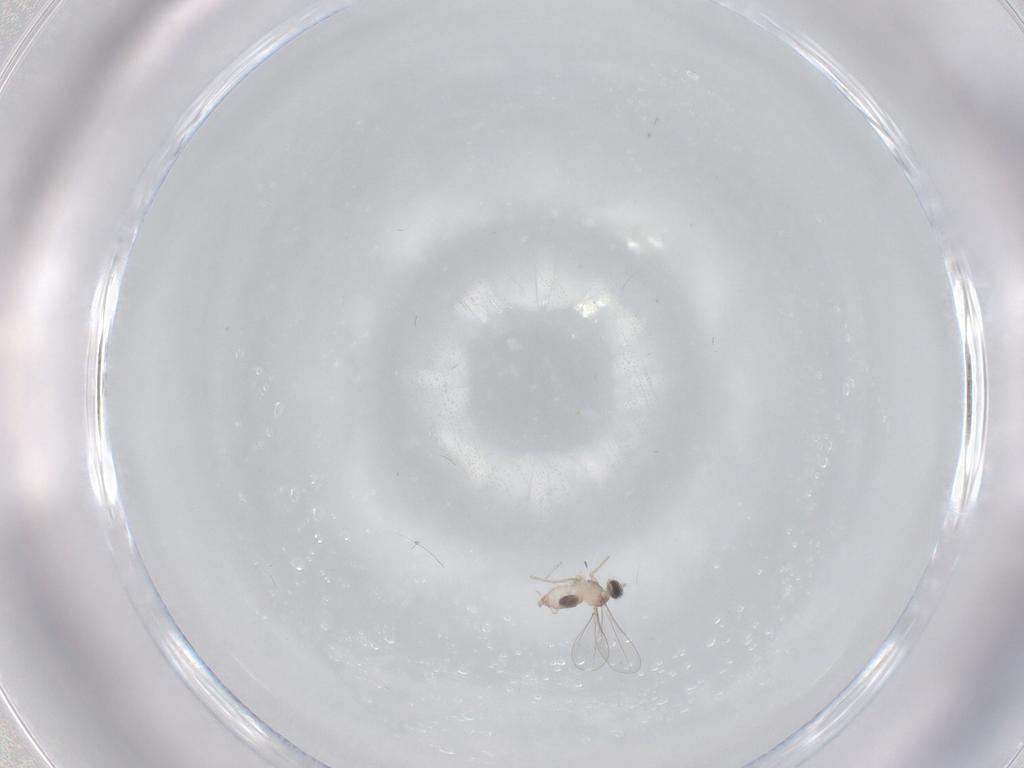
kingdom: Animalia
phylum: Arthropoda
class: Insecta
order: Diptera
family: Cecidomyiidae
